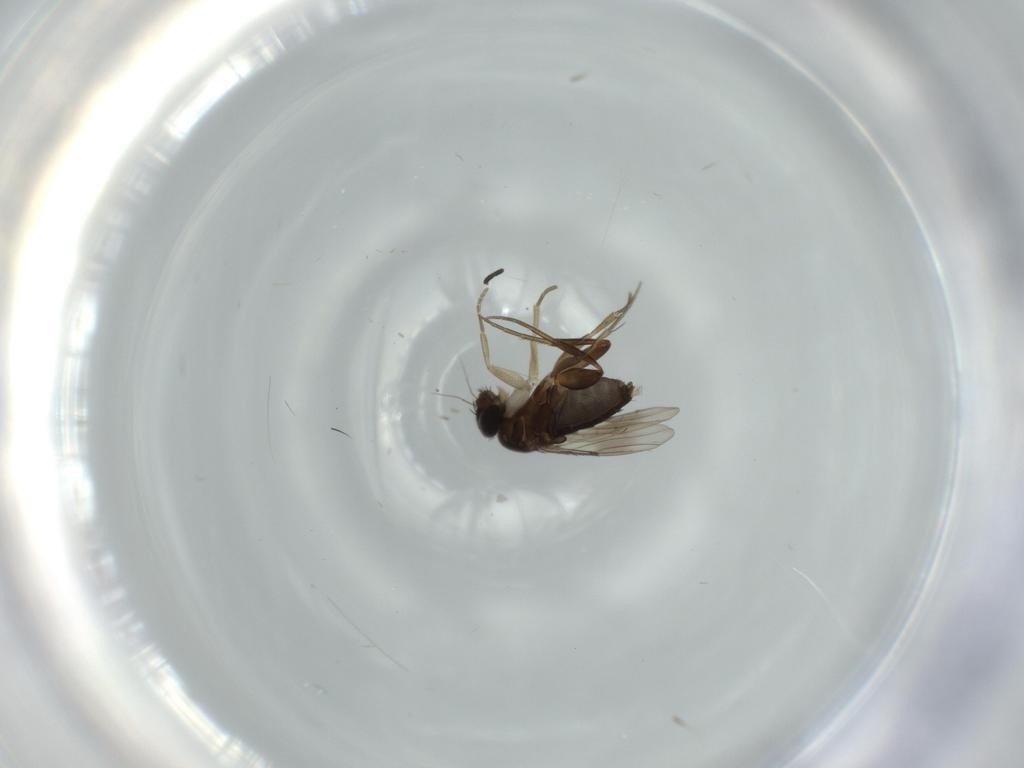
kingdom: Animalia
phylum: Arthropoda
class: Insecta
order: Diptera
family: Phoridae
